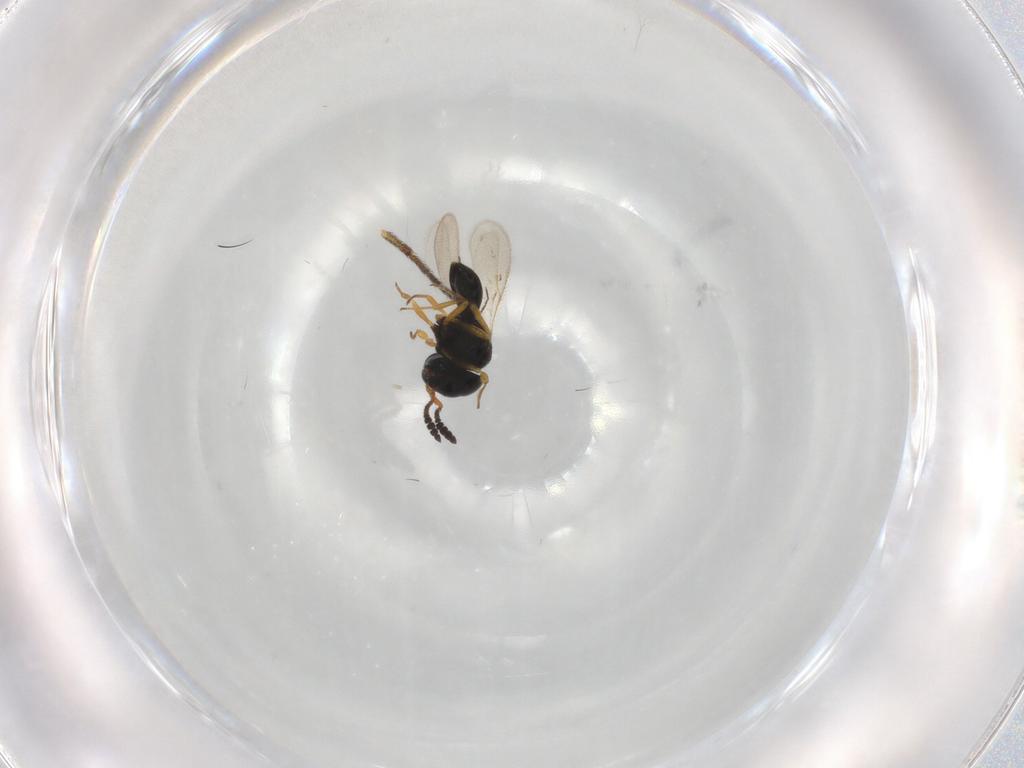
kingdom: Animalia
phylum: Arthropoda
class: Insecta
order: Hymenoptera
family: Scelionidae
